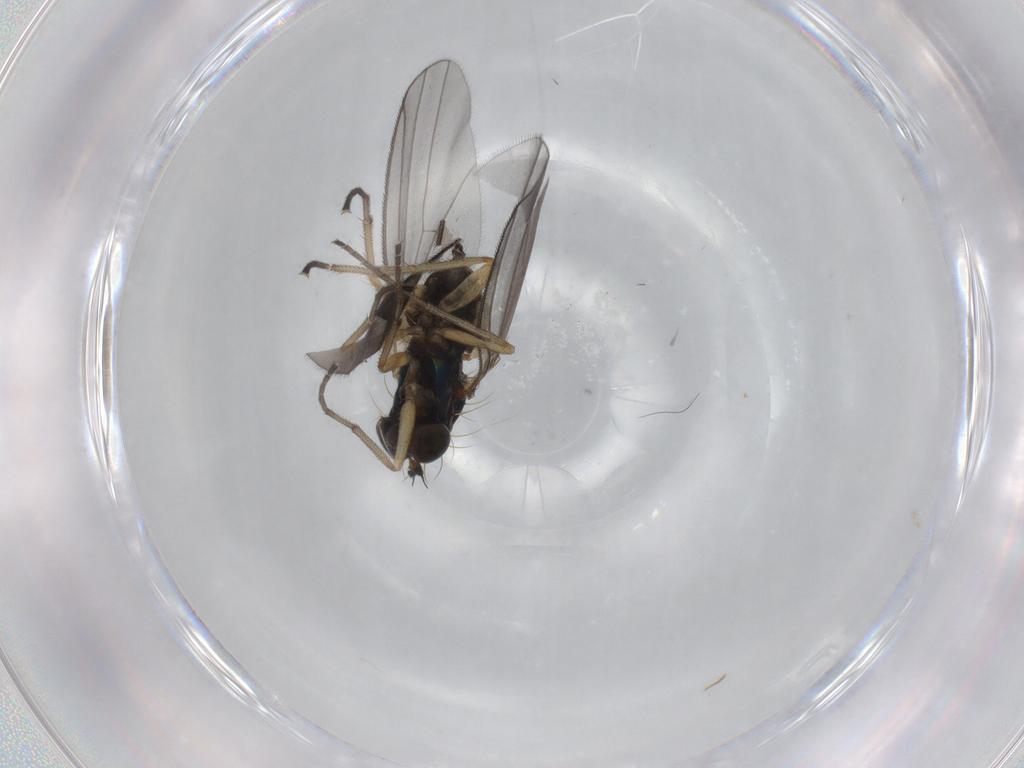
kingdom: Animalia
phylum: Arthropoda
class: Insecta
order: Diptera
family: Dolichopodidae
